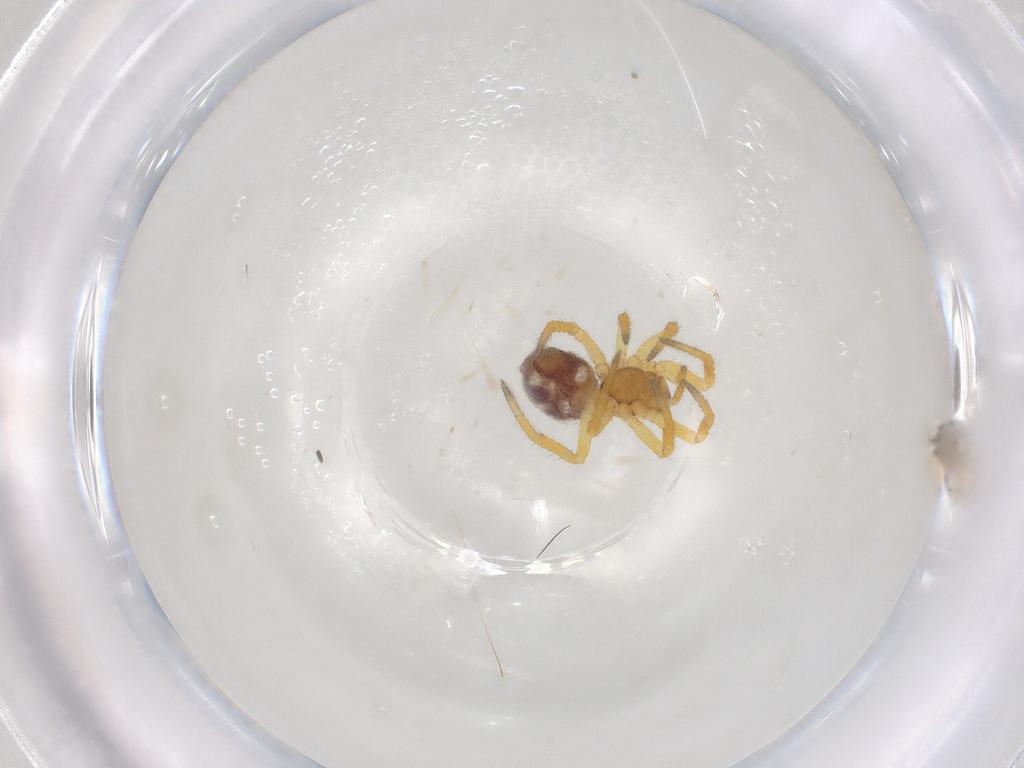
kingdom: Animalia
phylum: Arthropoda
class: Arachnida
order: Araneae
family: Theridiidae
